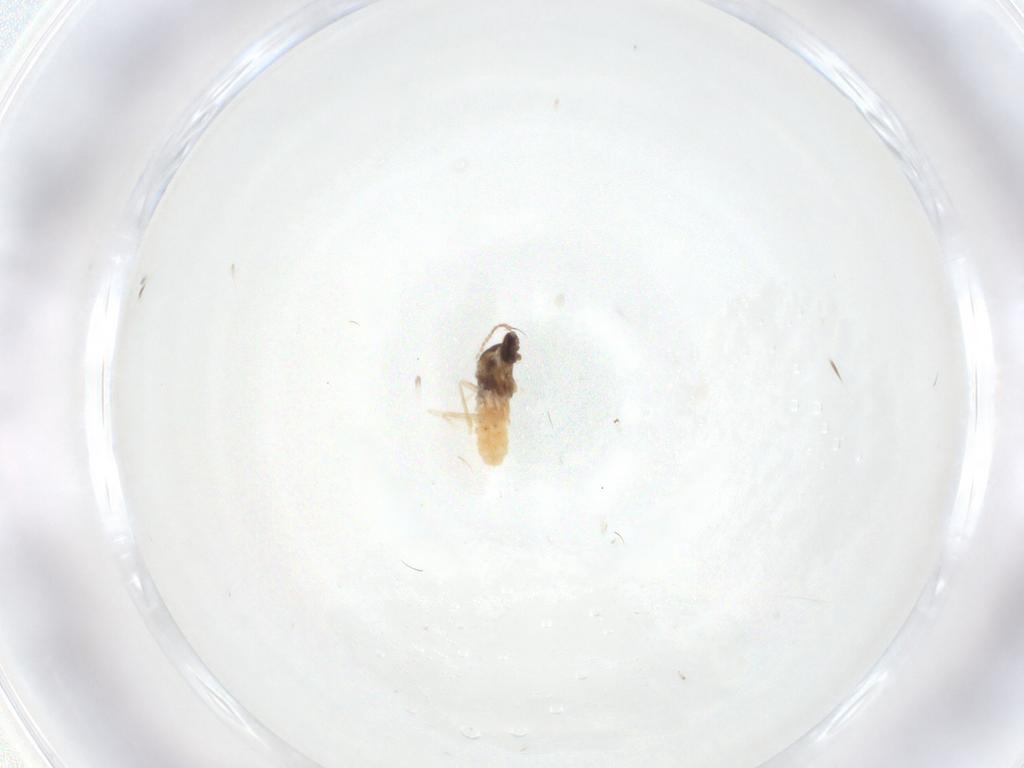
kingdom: Animalia
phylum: Arthropoda
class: Insecta
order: Diptera
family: Cecidomyiidae
